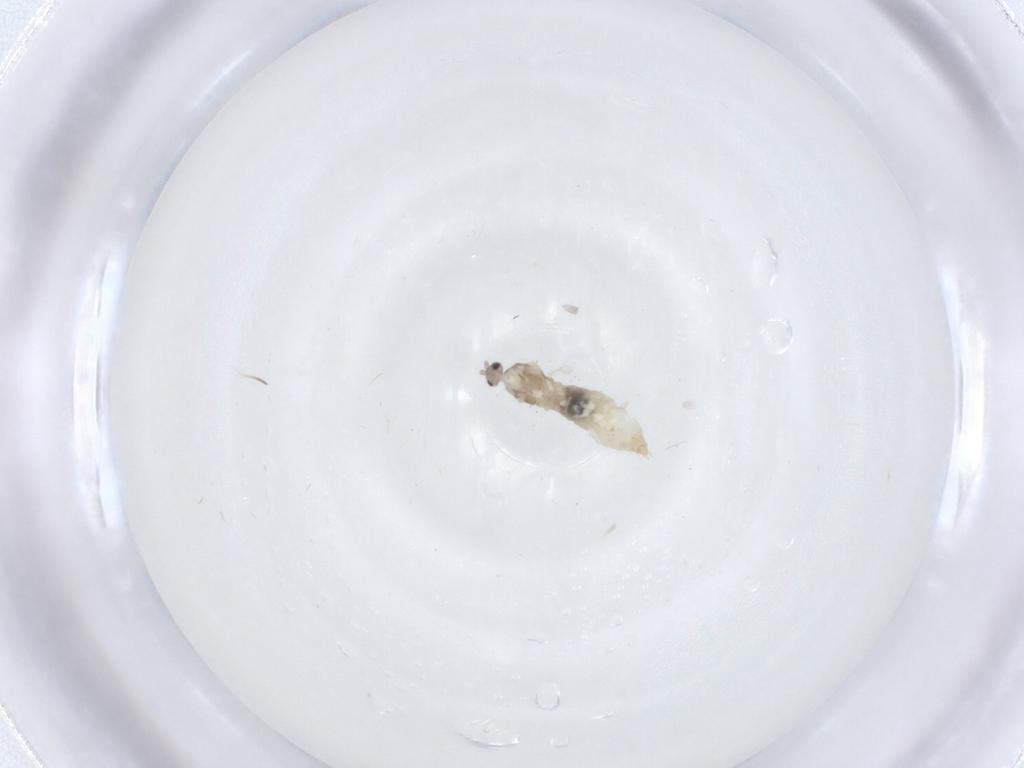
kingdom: Animalia
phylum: Arthropoda
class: Insecta
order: Diptera
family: Cecidomyiidae
